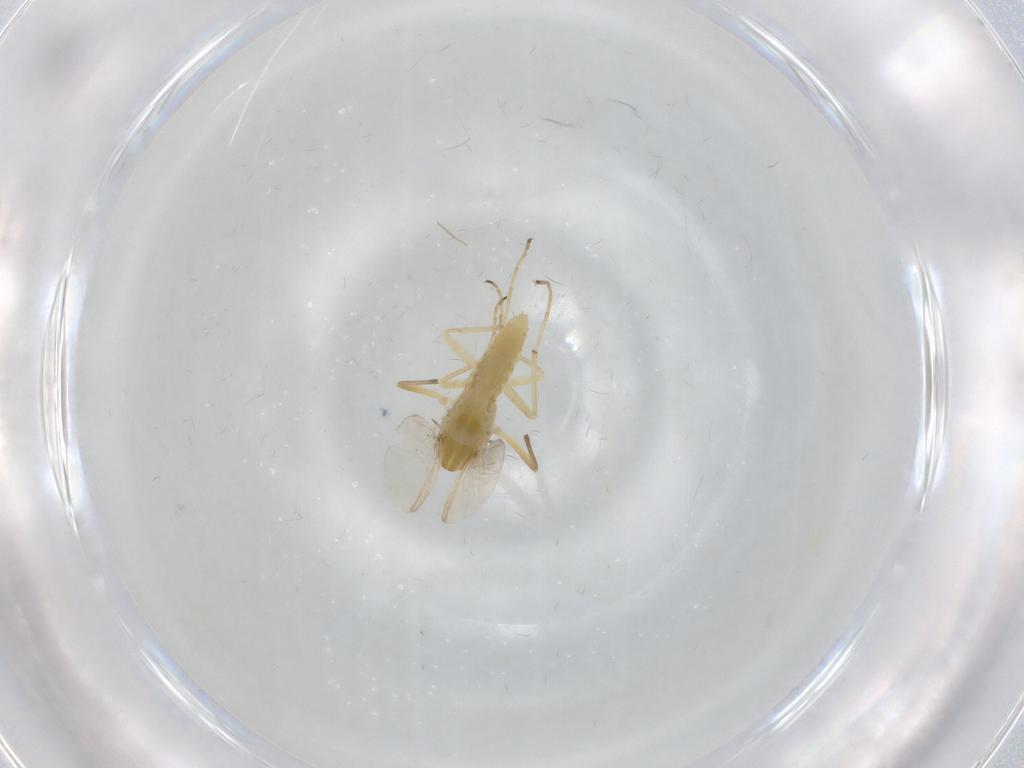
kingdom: Animalia
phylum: Arthropoda
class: Insecta
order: Diptera
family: Chironomidae
